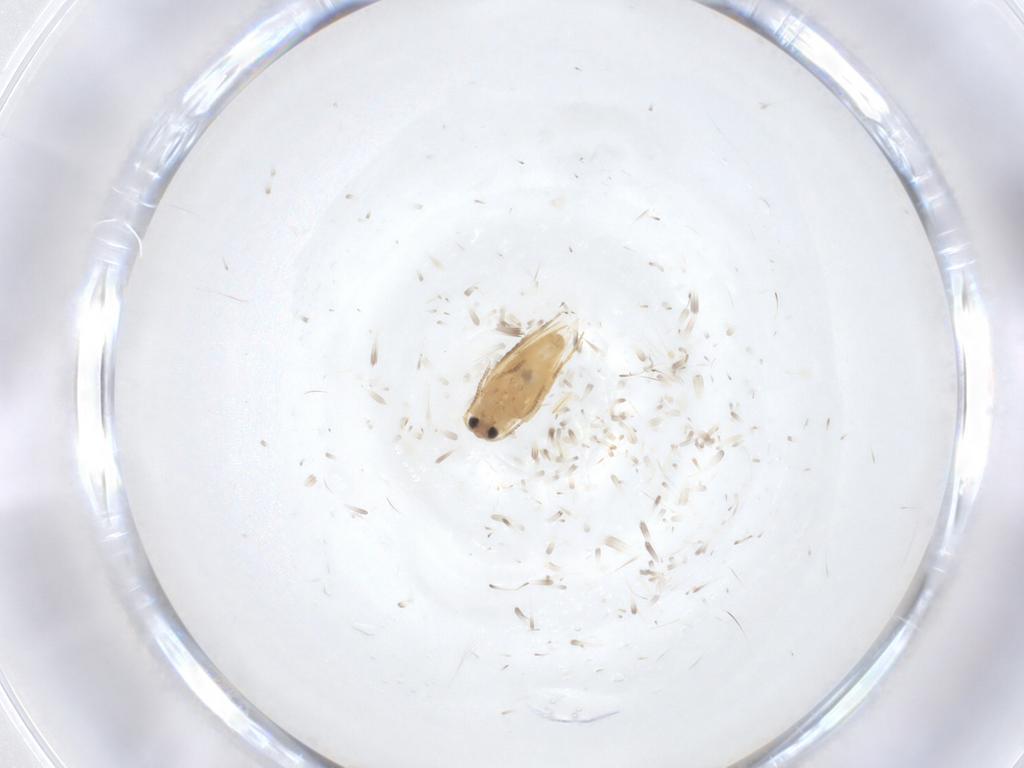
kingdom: Animalia
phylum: Arthropoda
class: Insecta
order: Lepidoptera
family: Crambidae
